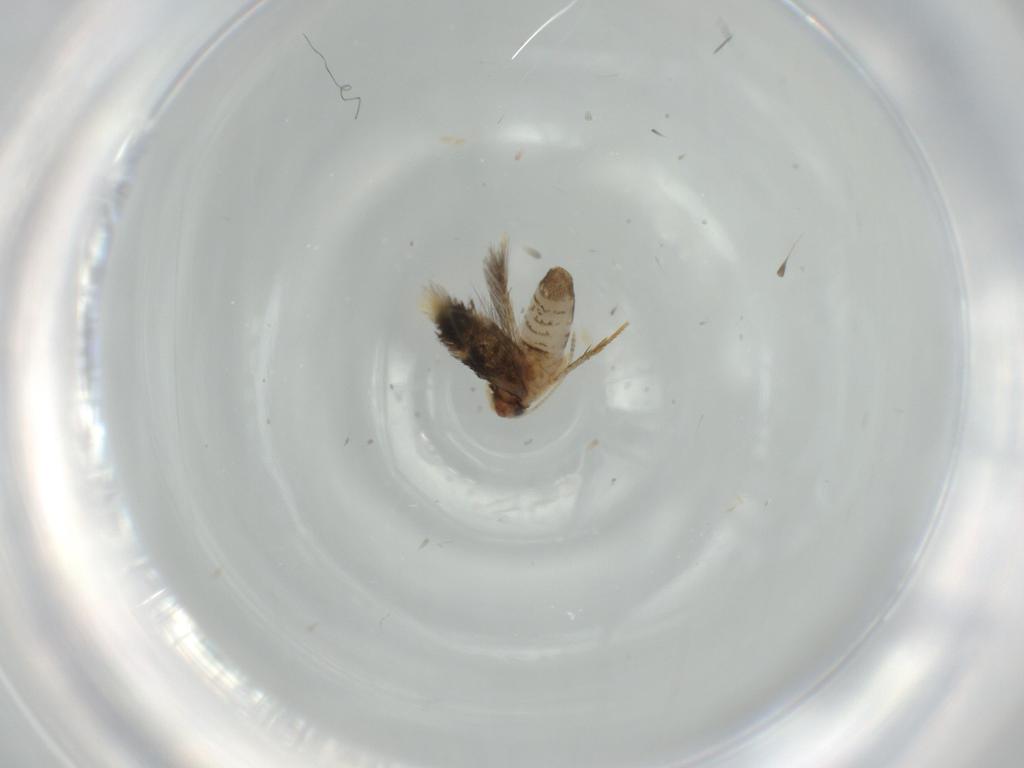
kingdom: Animalia
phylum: Arthropoda
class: Insecta
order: Lepidoptera
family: Nepticulidae
